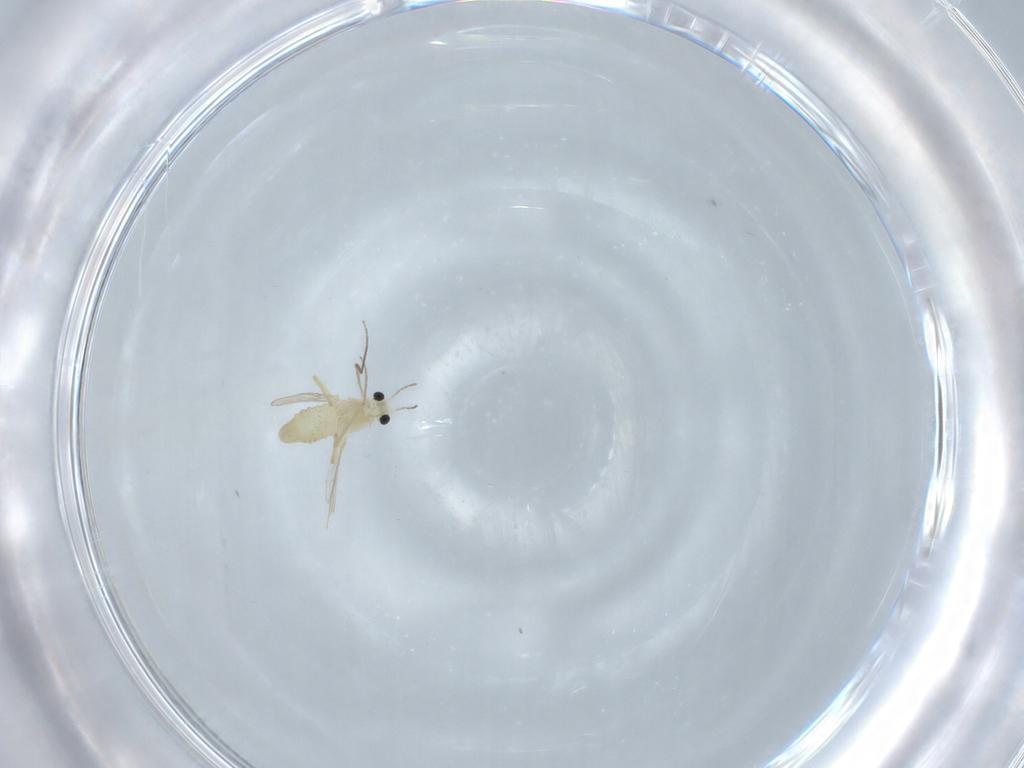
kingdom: Animalia
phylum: Arthropoda
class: Insecta
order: Diptera
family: Chironomidae
